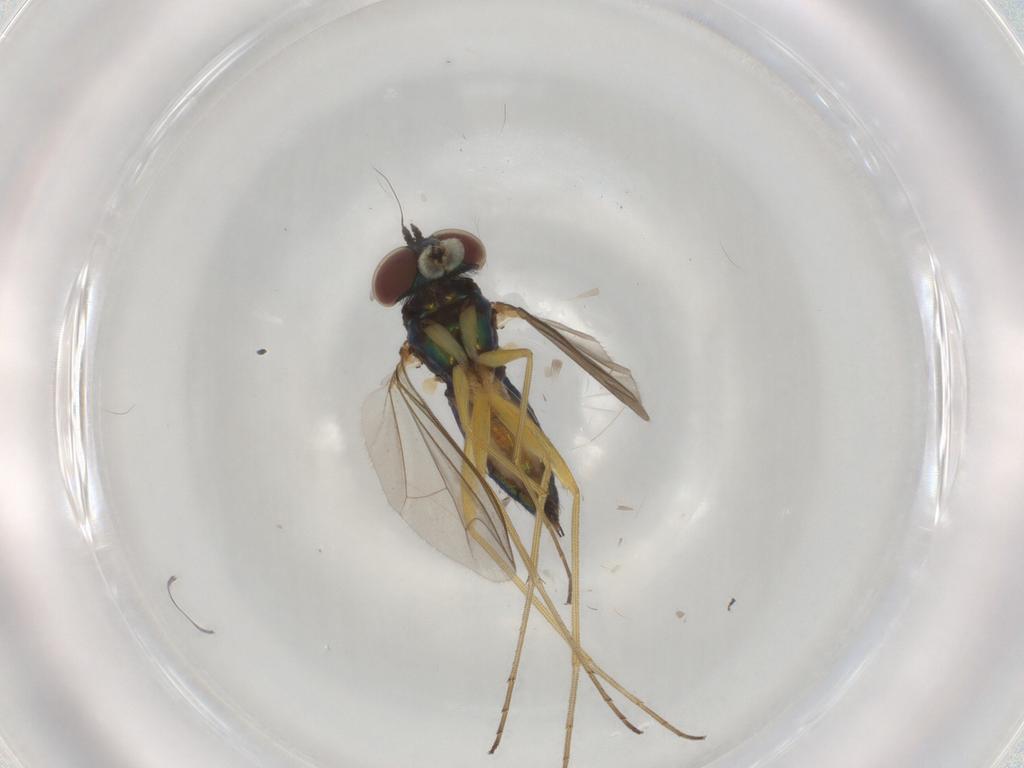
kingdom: Animalia
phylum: Arthropoda
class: Insecta
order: Diptera
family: Dolichopodidae
